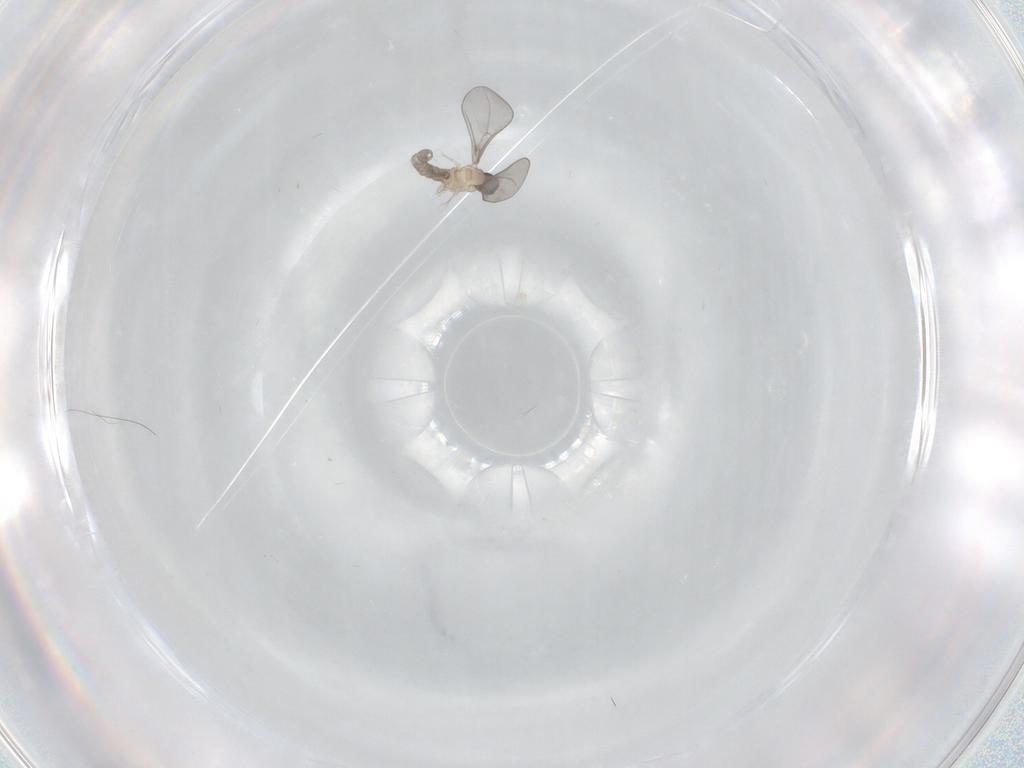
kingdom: Animalia
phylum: Arthropoda
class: Insecta
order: Diptera
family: Cecidomyiidae
